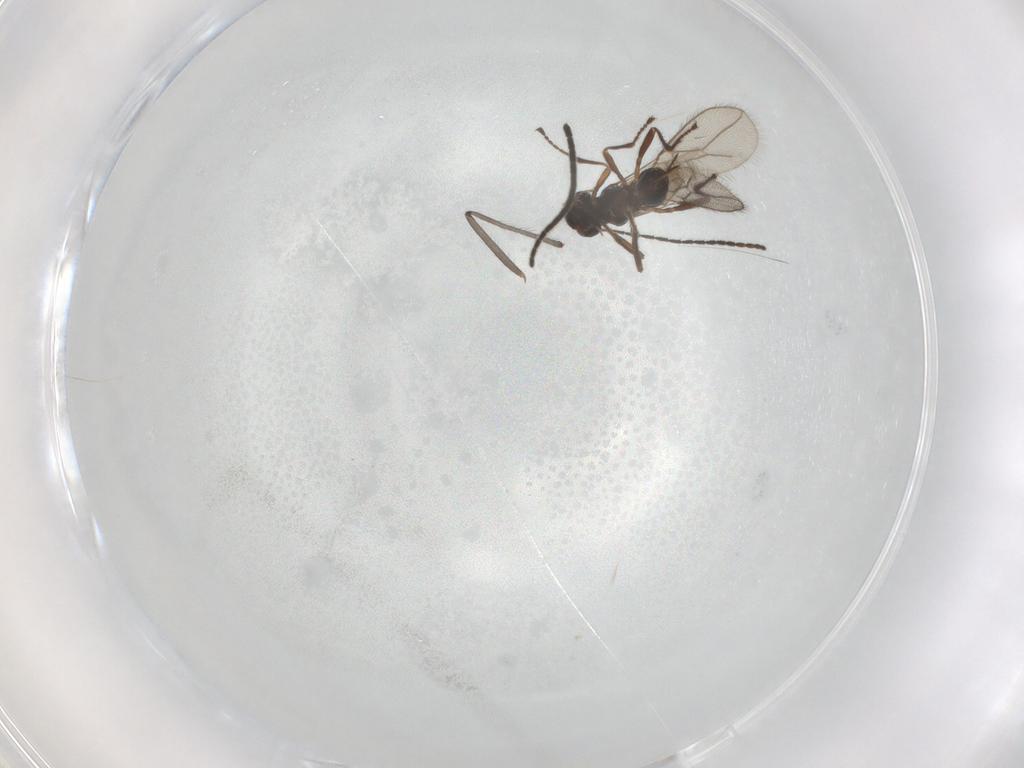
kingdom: Animalia
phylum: Arthropoda
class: Insecta
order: Hymenoptera
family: Braconidae
